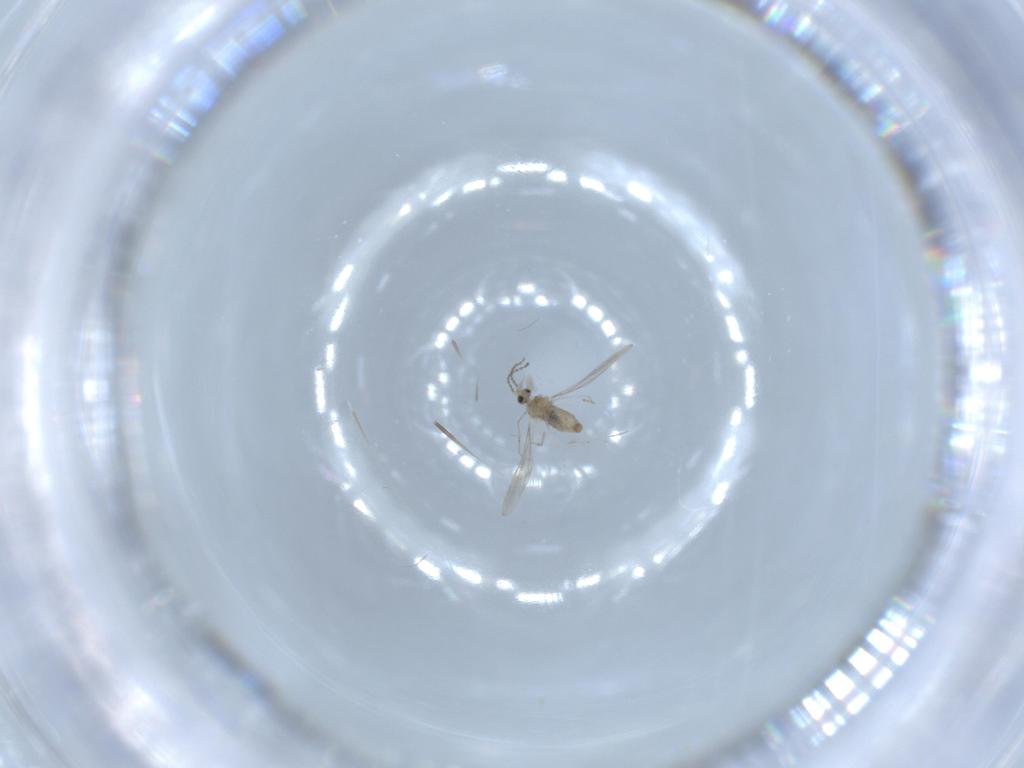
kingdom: Animalia
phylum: Arthropoda
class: Insecta
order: Diptera
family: Cecidomyiidae
